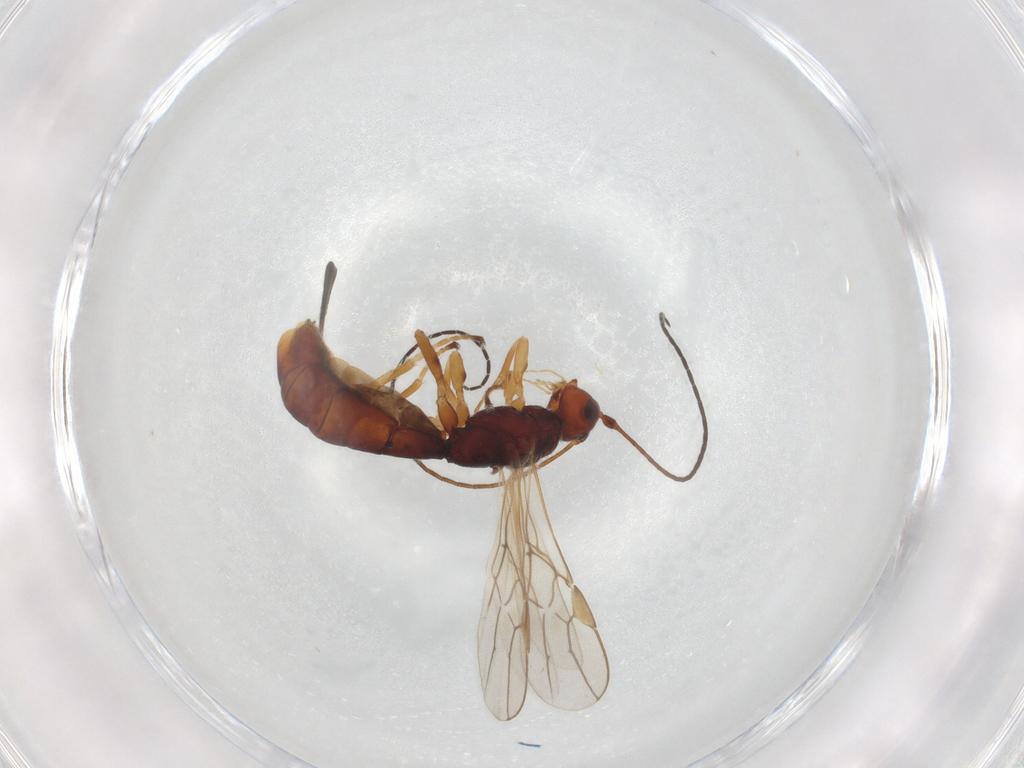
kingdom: Animalia
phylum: Arthropoda
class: Insecta
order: Hymenoptera
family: Braconidae
